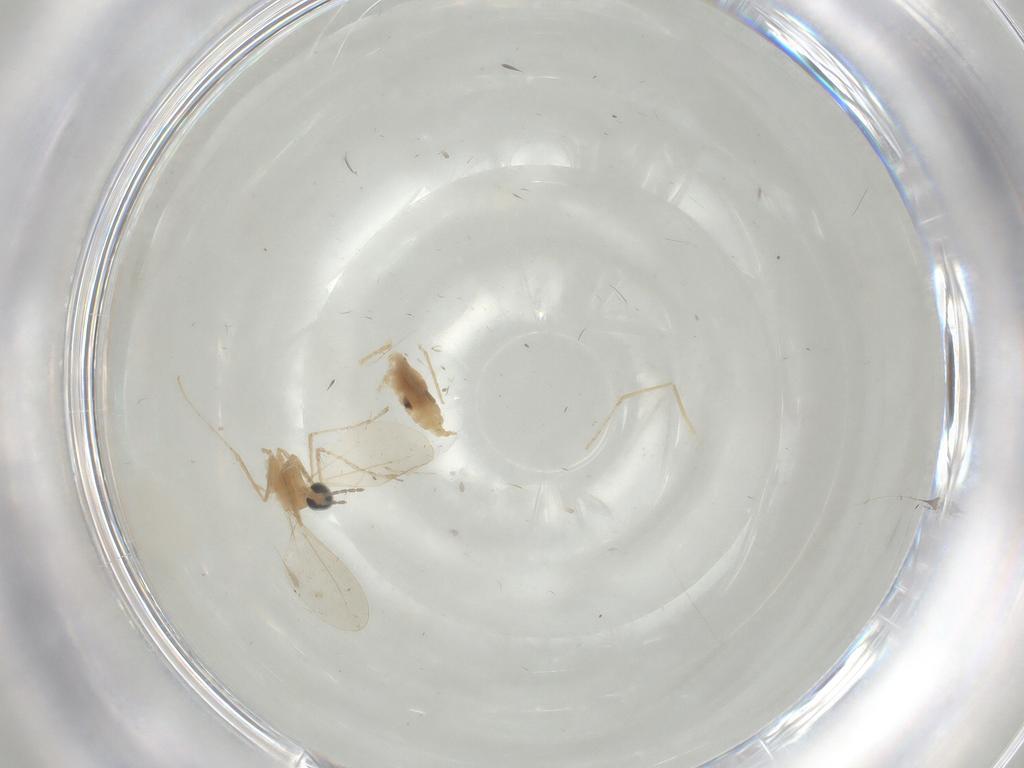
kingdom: Animalia
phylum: Arthropoda
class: Insecta
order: Diptera
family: Cecidomyiidae
